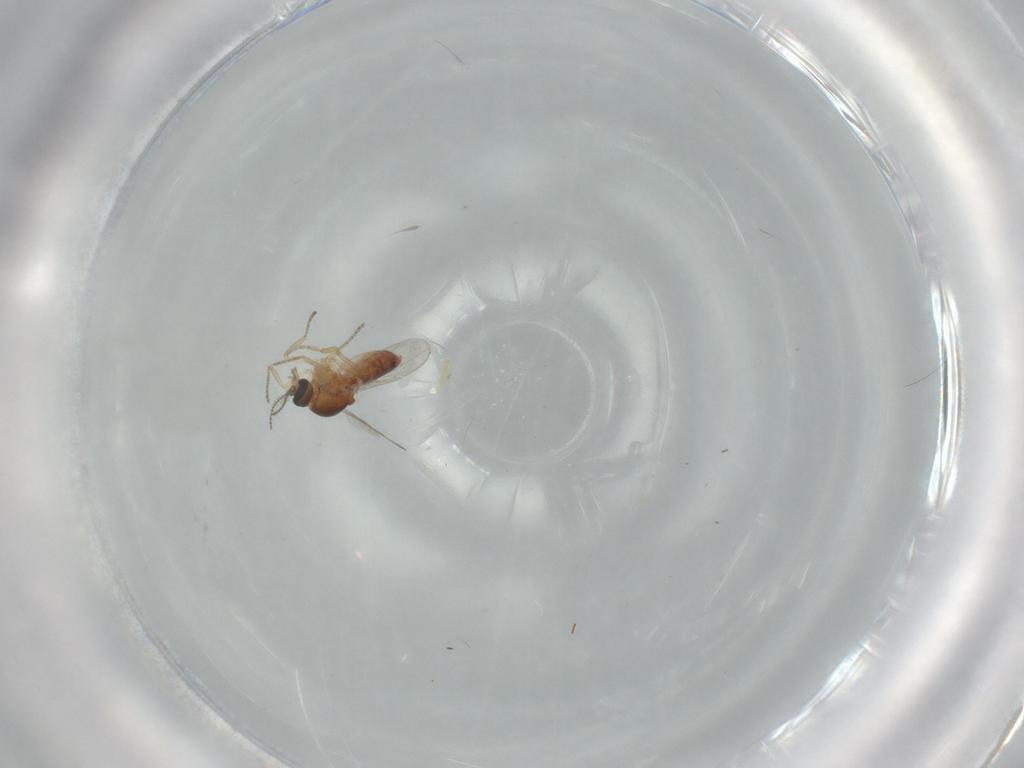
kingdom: Animalia
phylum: Arthropoda
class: Insecta
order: Diptera
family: Ceratopogonidae
